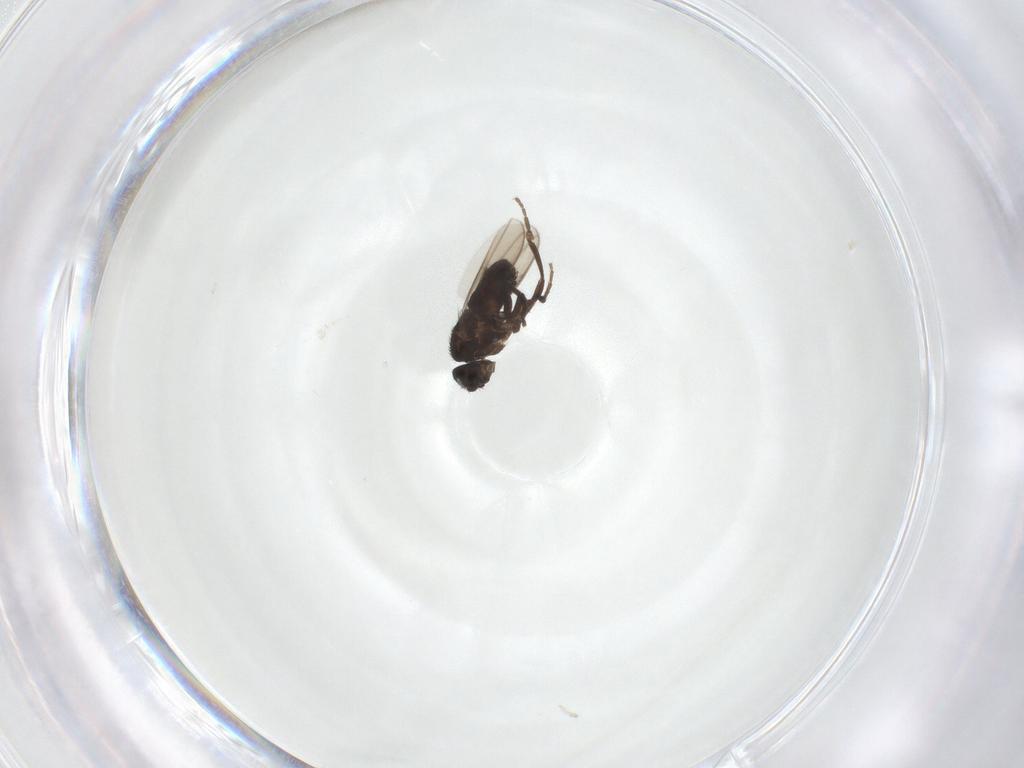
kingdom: Animalia
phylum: Arthropoda
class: Insecta
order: Diptera
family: Sphaeroceridae
